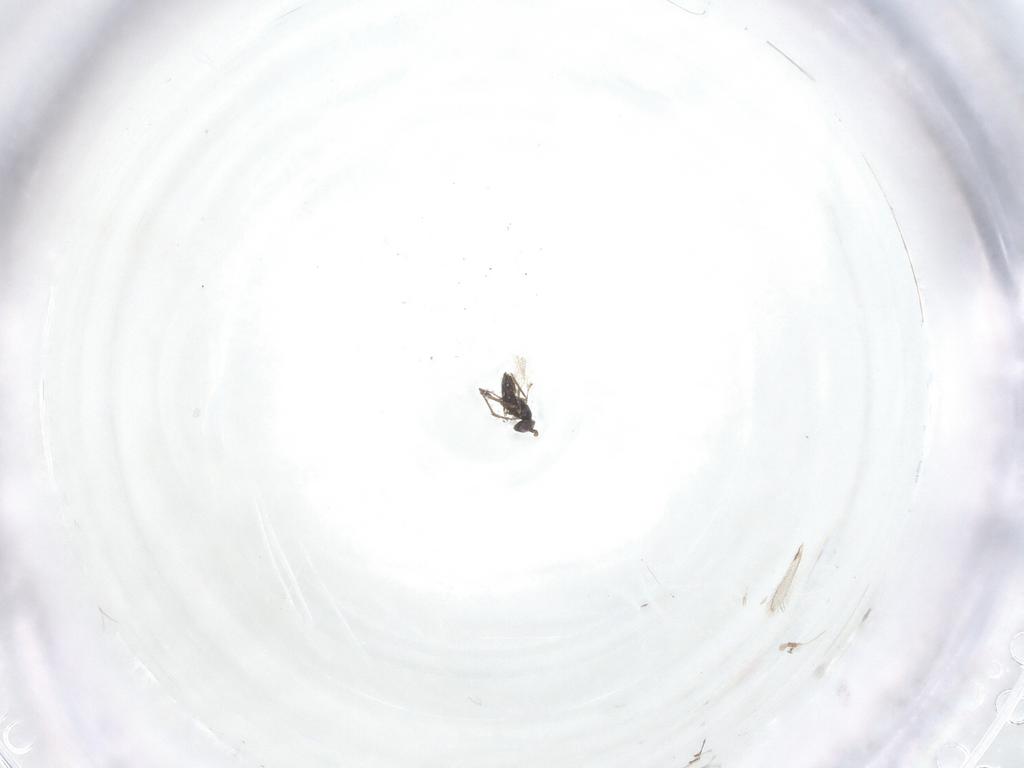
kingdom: Animalia
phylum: Arthropoda
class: Insecta
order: Hymenoptera
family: Mymaridae
